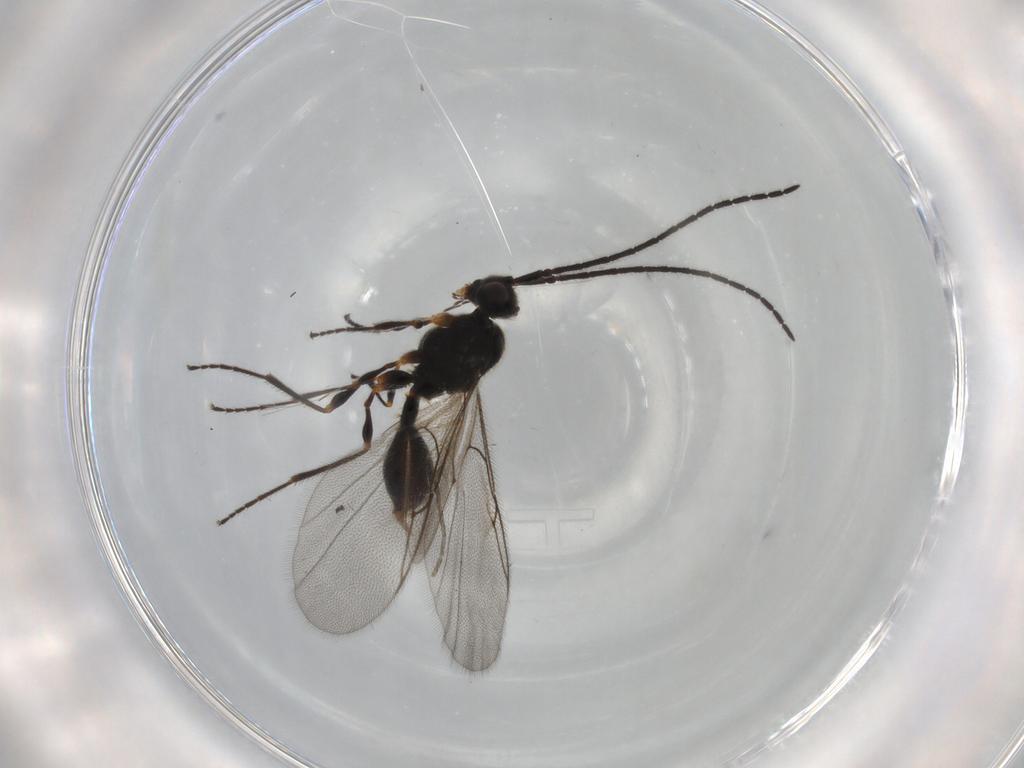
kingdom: Animalia
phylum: Arthropoda
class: Insecta
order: Hymenoptera
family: Diapriidae
